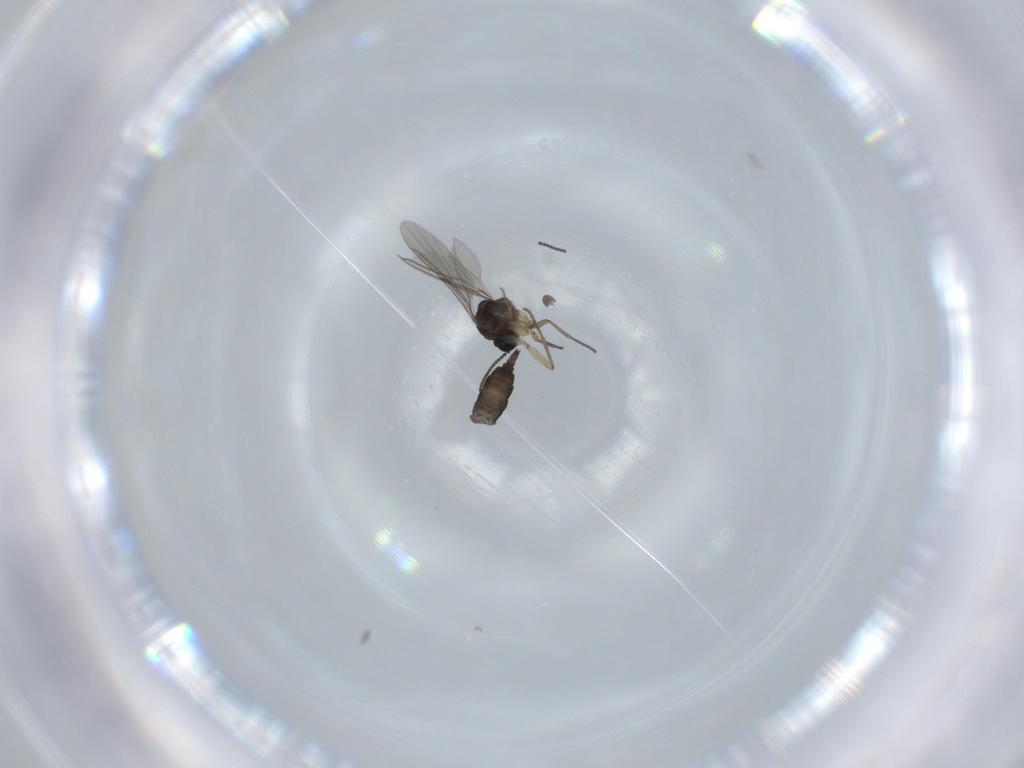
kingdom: Animalia
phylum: Arthropoda
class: Insecta
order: Diptera
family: Sciaridae
